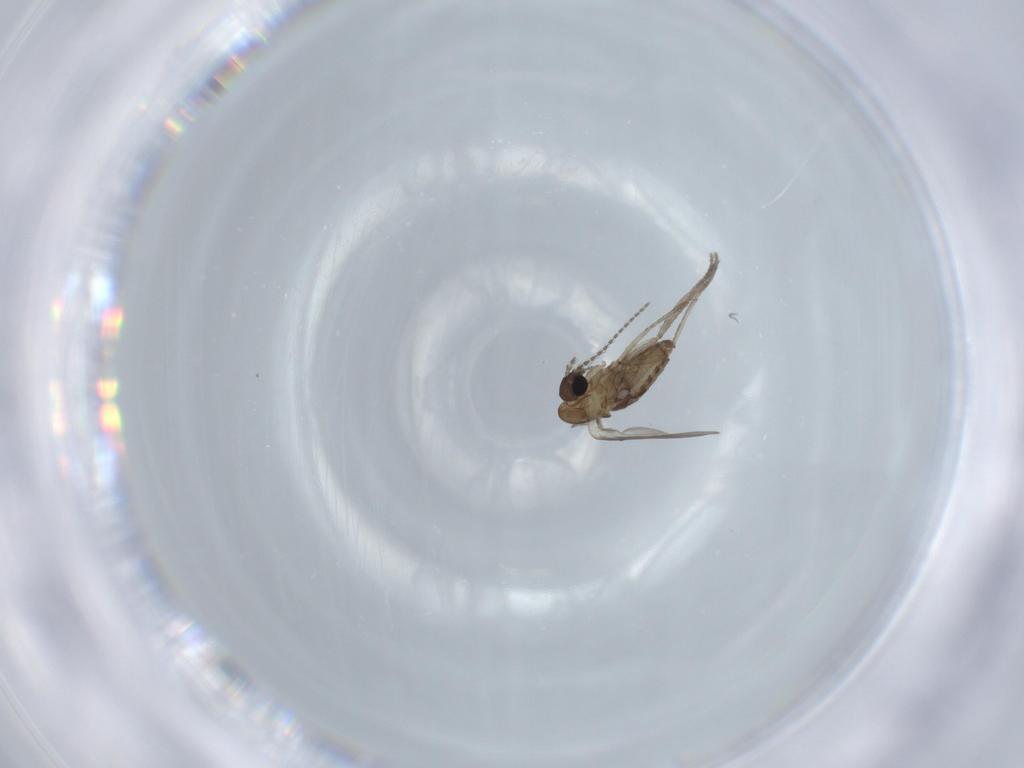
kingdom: Animalia
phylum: Arthropoda
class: Insecta
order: Diptera
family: Psychodidae
